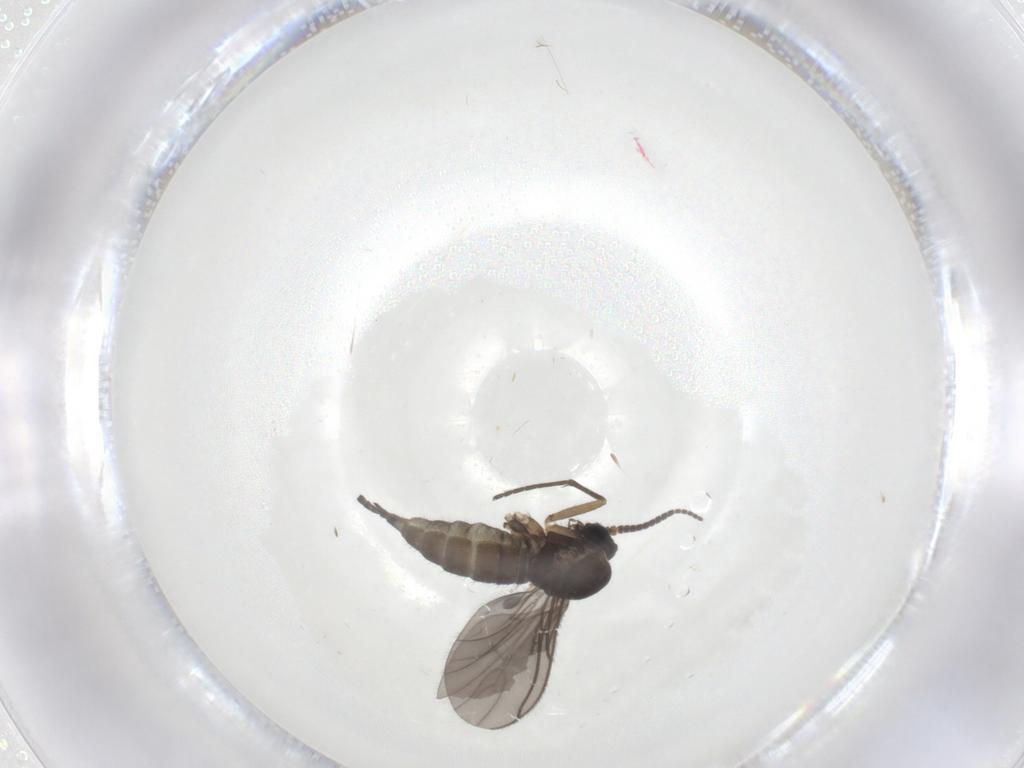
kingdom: Animalia
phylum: Arthropoda
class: Insecta
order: Diptera
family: Sciaridae
